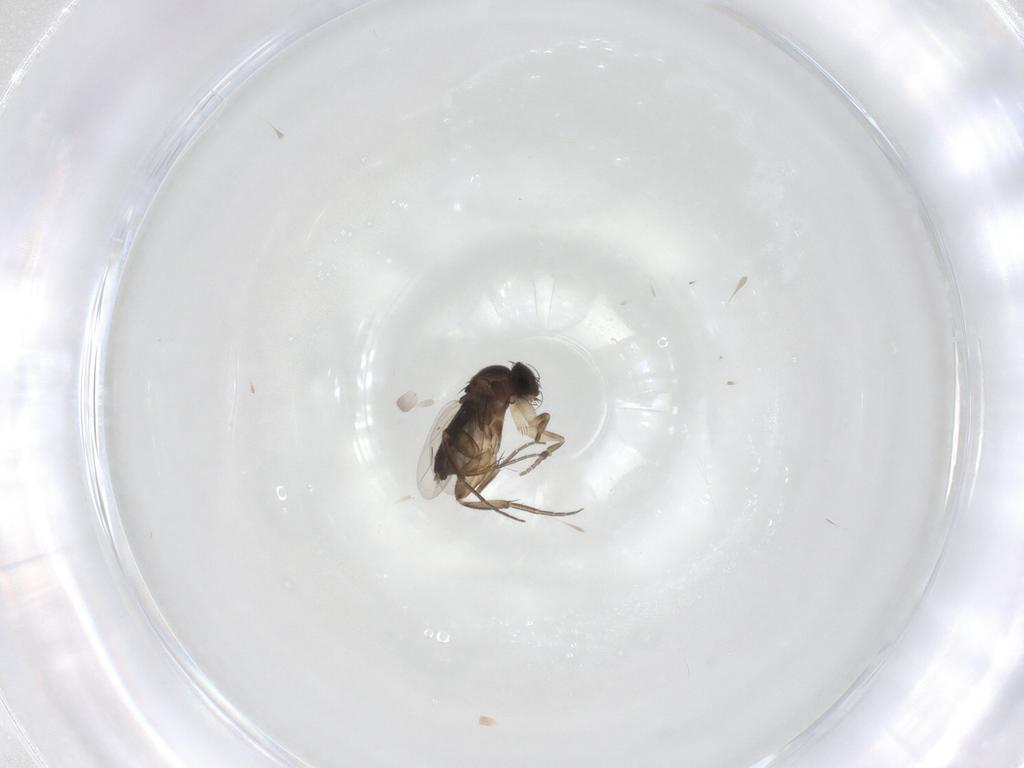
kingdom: Animalia
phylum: Arthropoda
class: Insecta
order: Diptera
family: Phoridae
